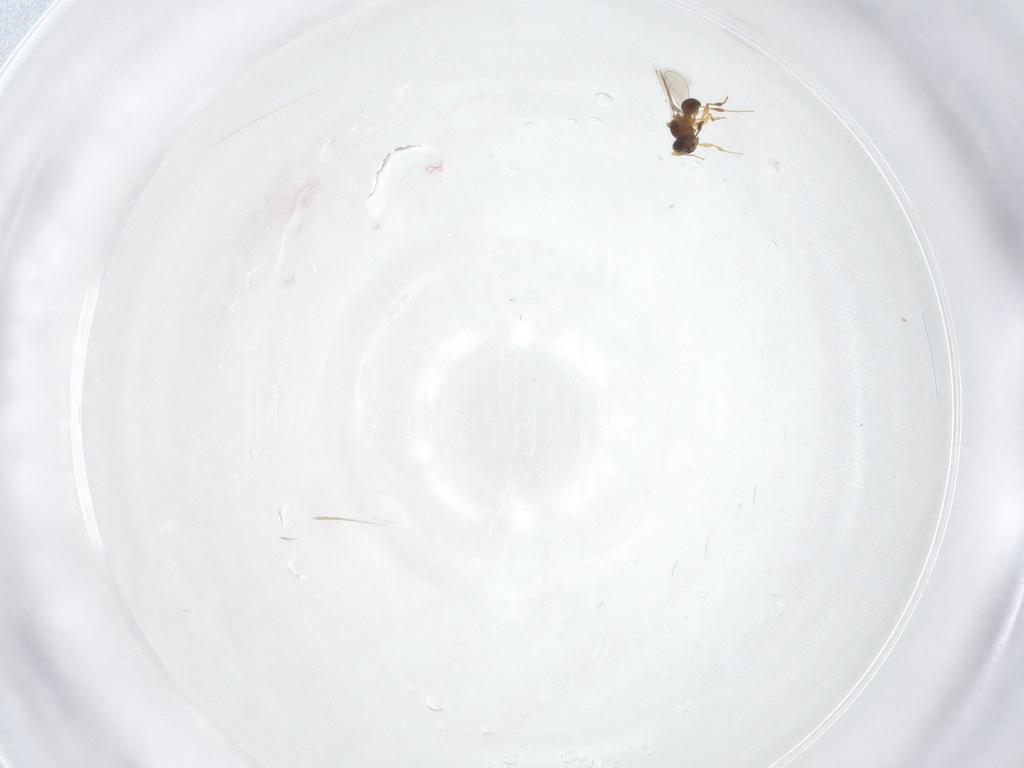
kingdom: Animalia
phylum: Arthropoda
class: Insecta
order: Hymenoptera
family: Platygastridae
